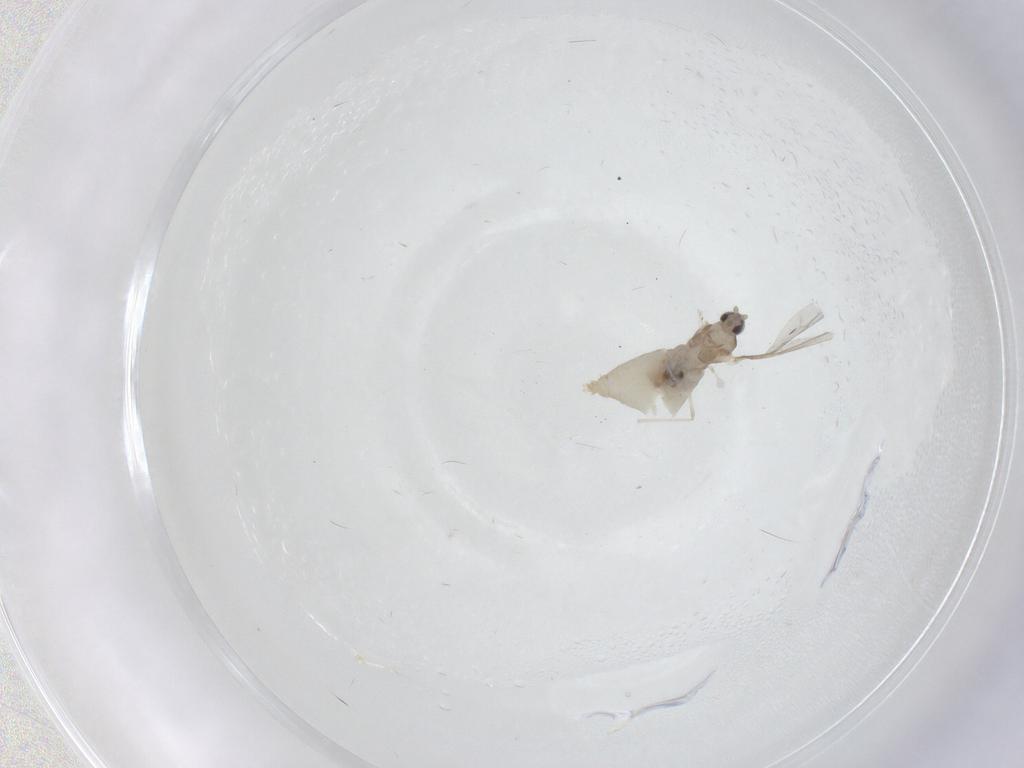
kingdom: Animalia
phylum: Arthropoda
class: Insecta
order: Diptera
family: Cecidomyiidae
